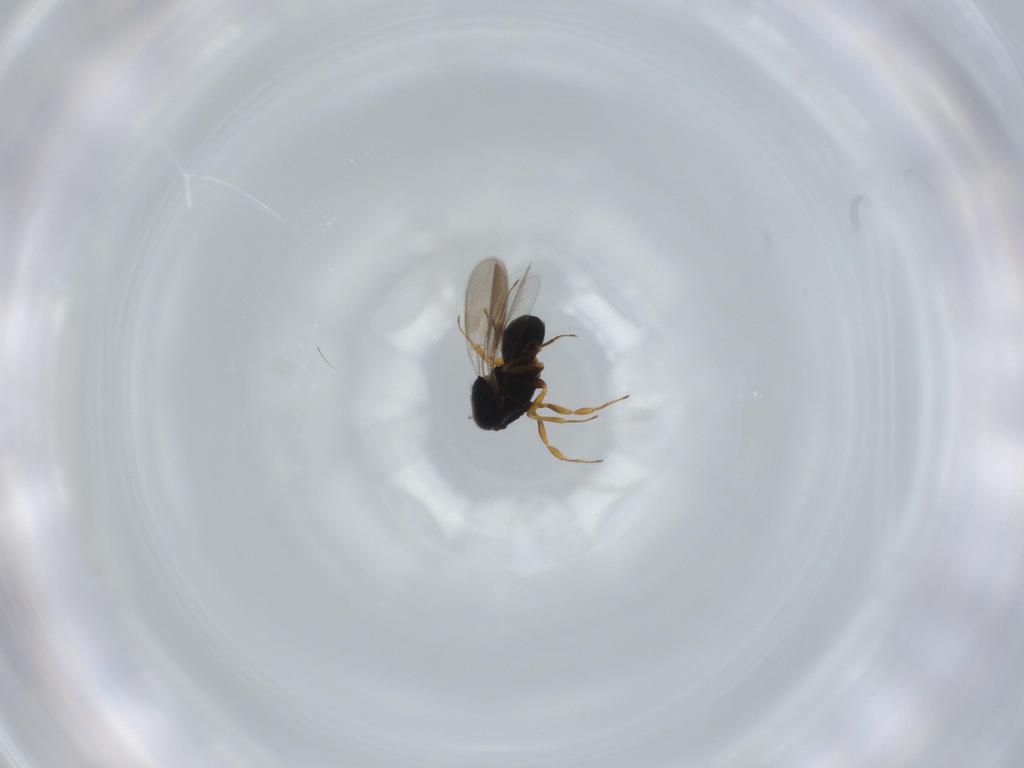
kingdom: Animalia
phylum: Arthropoda
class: Insecta
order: Hymenoptera
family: Scelionidae
